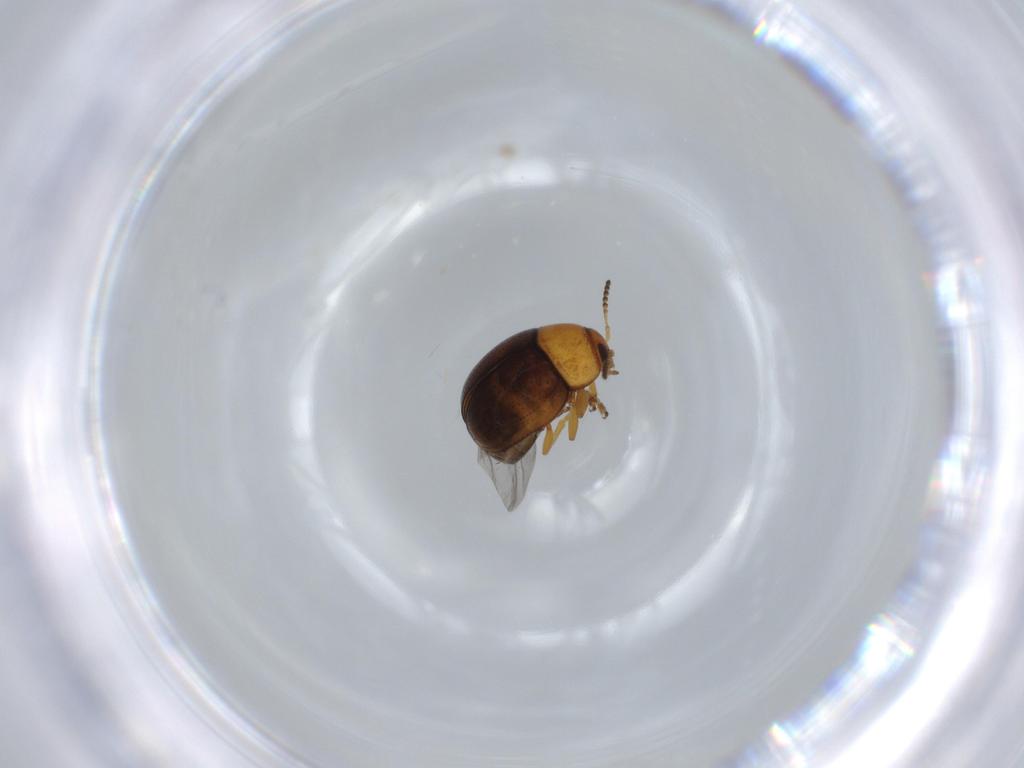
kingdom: Animalia
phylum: Arthropoda
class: Insecta
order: Coleoptera
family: Chrysomelidae
